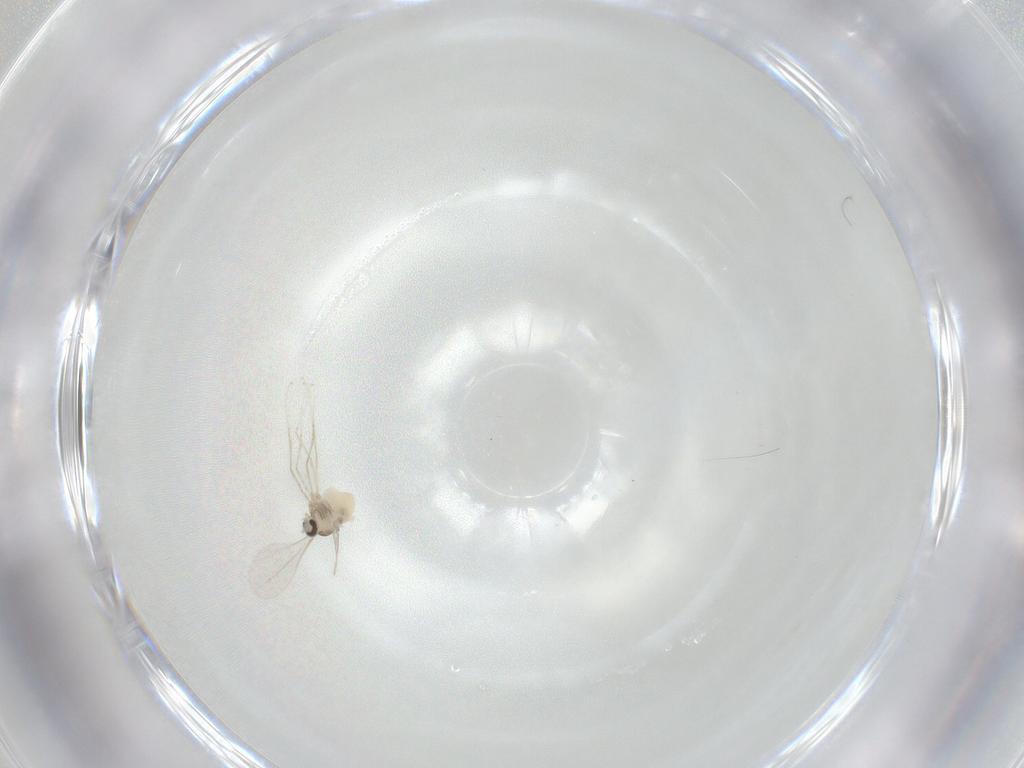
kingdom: Animalia
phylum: Arthropoda
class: Insecta
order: Diptera
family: Cecidomyiidae
